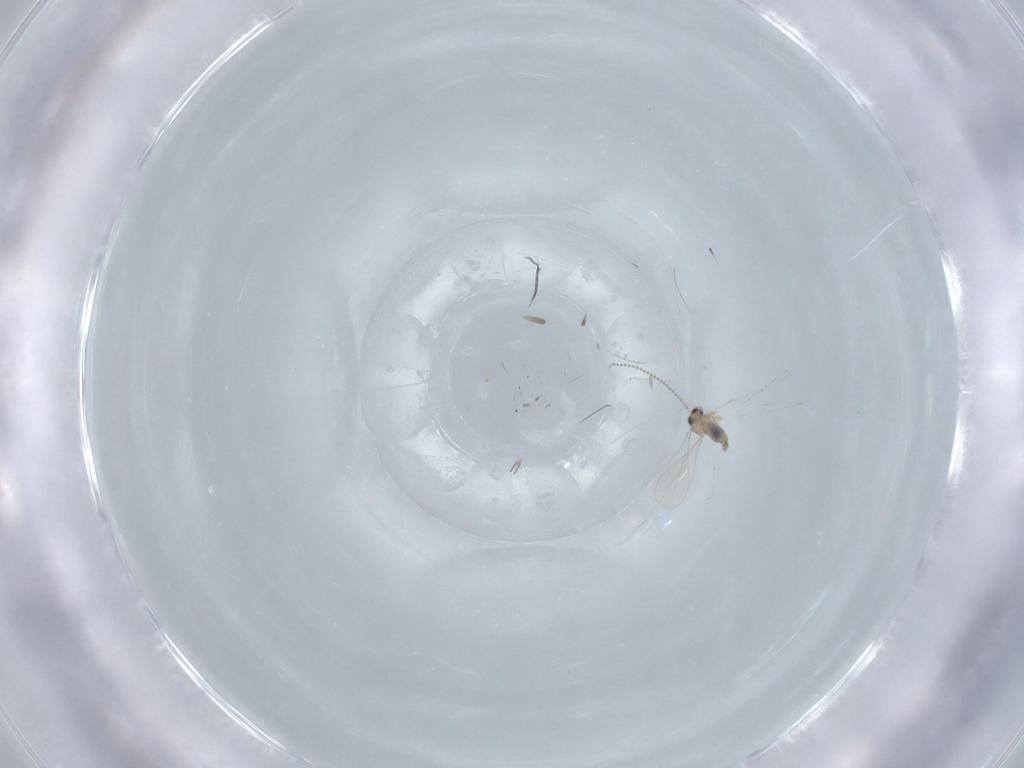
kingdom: Animalia
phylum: Arthropoda
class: Insecta
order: Diptera
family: Cecidomyiidae
